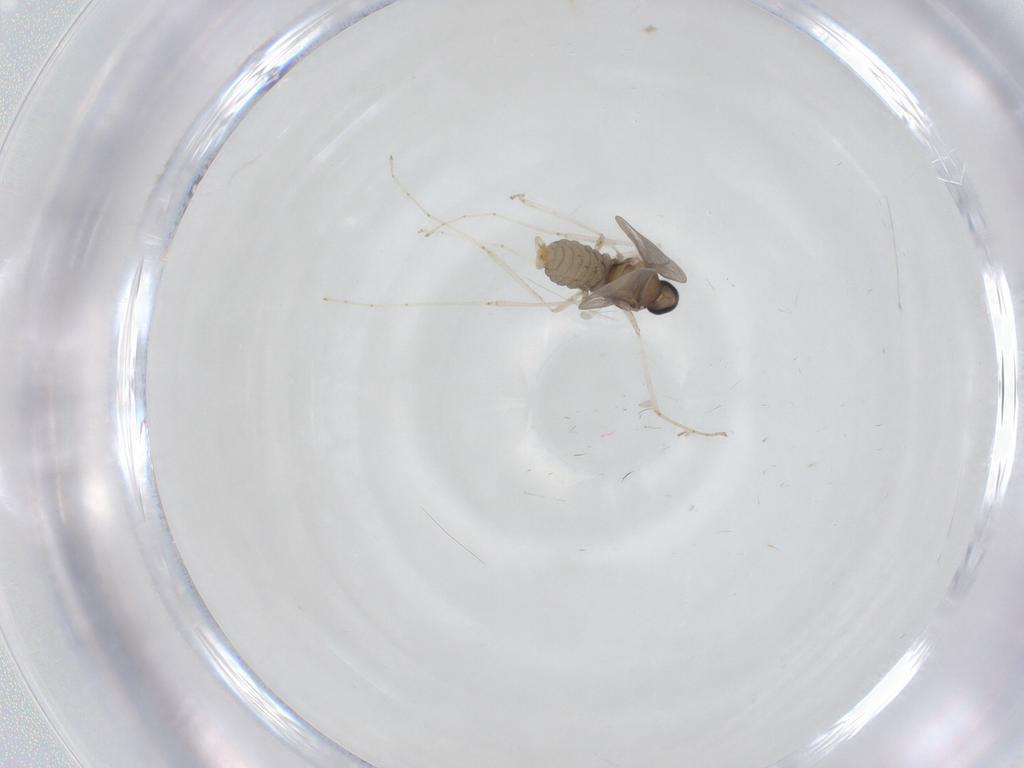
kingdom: Animalia
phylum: Arthropoda
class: Insecta
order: Diptera
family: Cecidomyiidae
